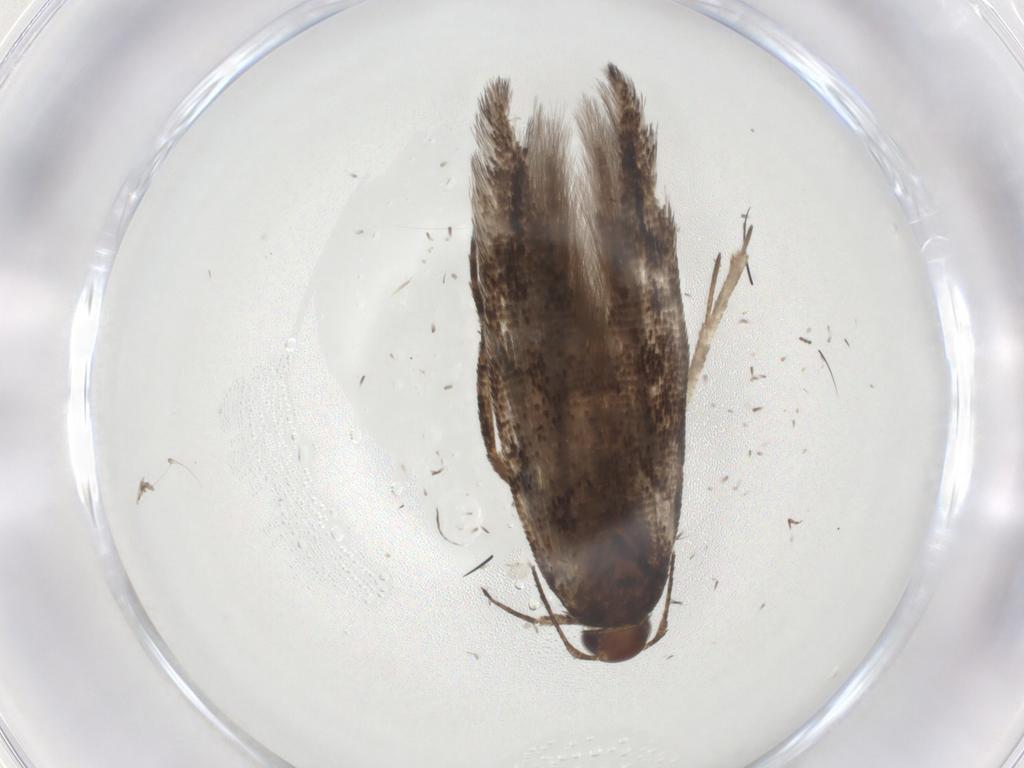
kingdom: Animalia
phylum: Arthropoda
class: Insecta
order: Lepidoptera
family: Gelechiidae
